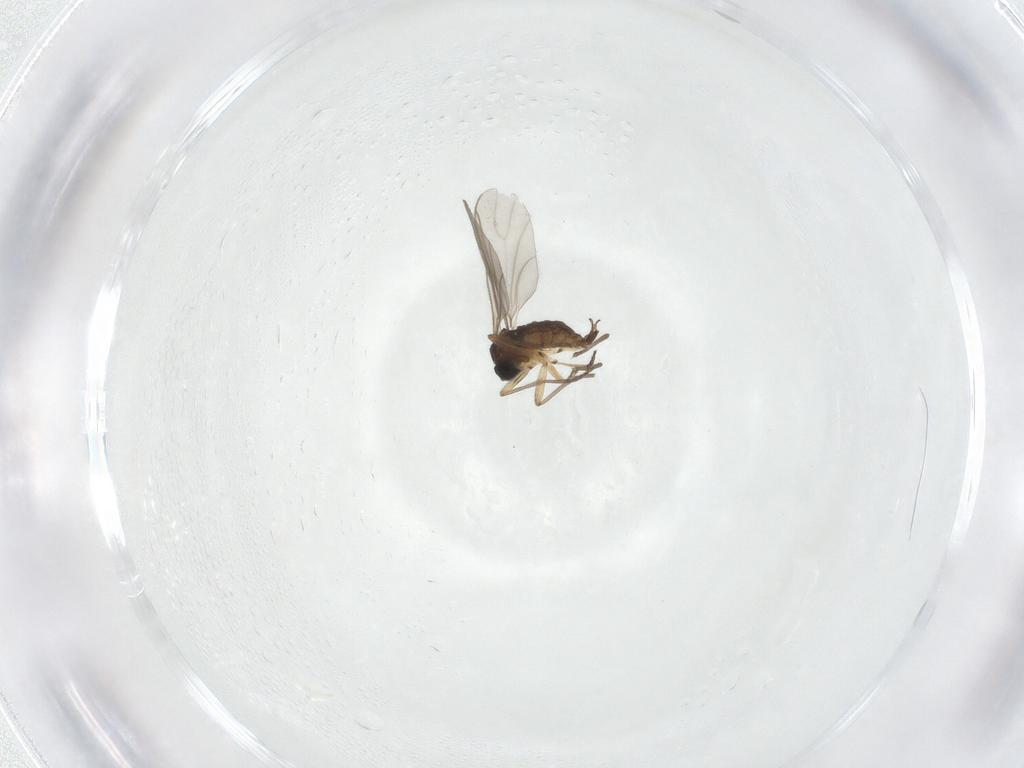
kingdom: Animalia
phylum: Arthropoda
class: Insecta
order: Diptera
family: Sciaridae
